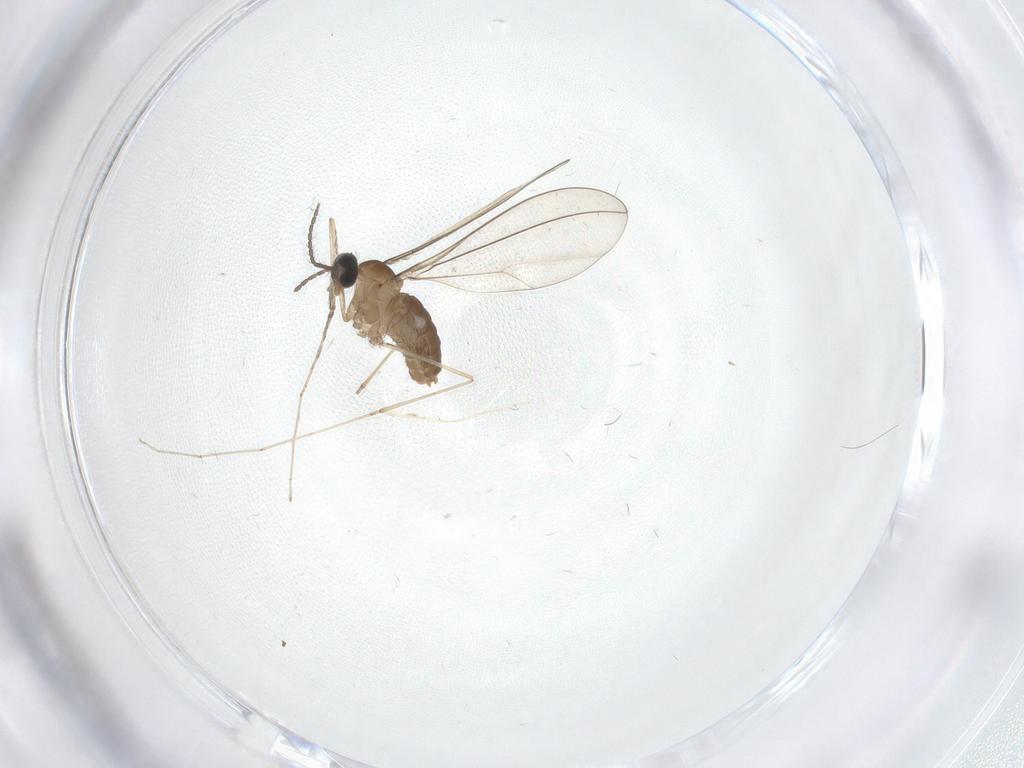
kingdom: Animalia
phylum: Arthropoda
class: Insecta
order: Diptera
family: Cecidomyiidae
